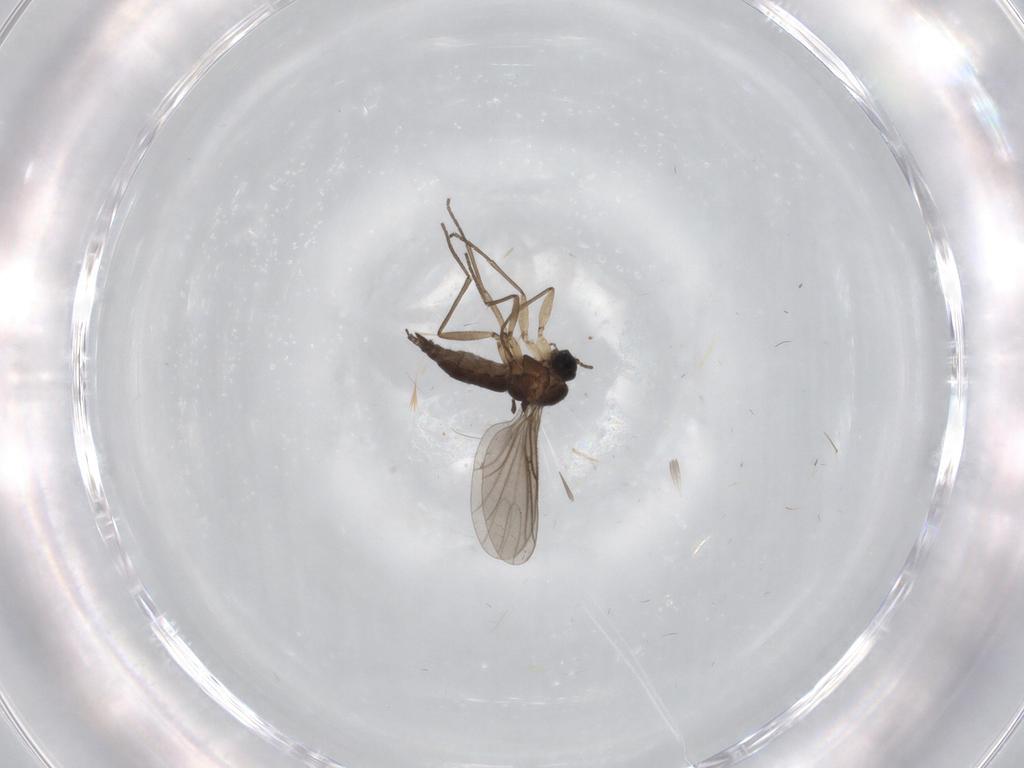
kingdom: Animalia
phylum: Arthropoda
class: Insecta
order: Diptera
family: Sciaridae
